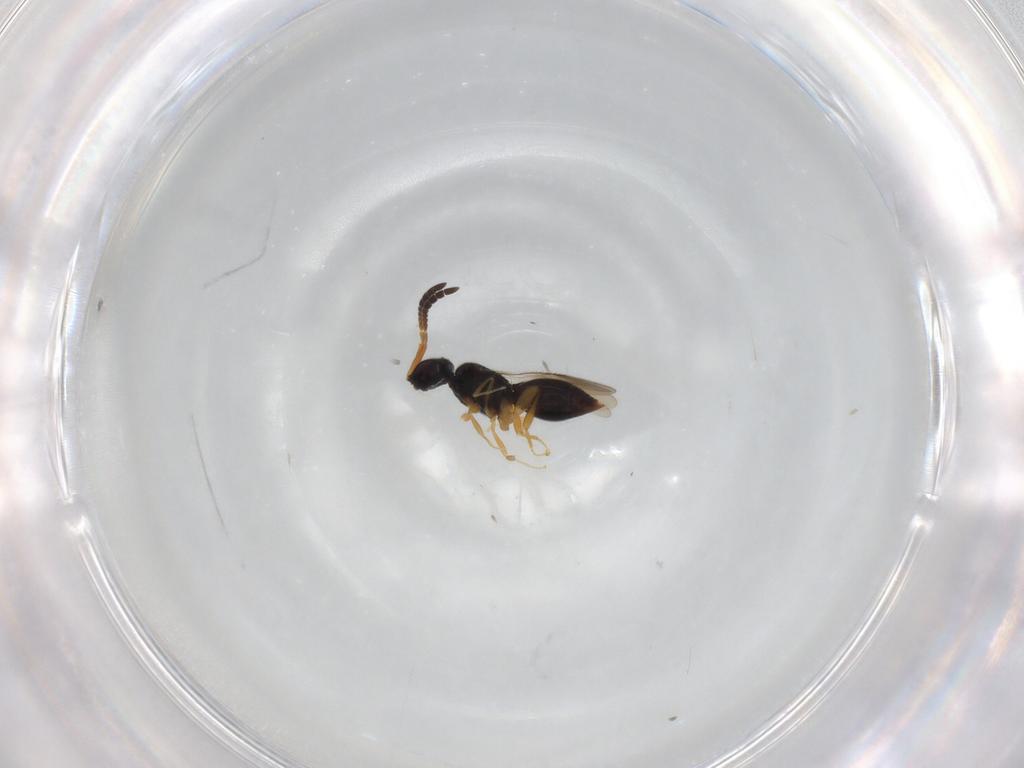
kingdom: Animalia
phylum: Arthropoda
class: Insecta
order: Hymenoptera
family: Ceraphronidae
